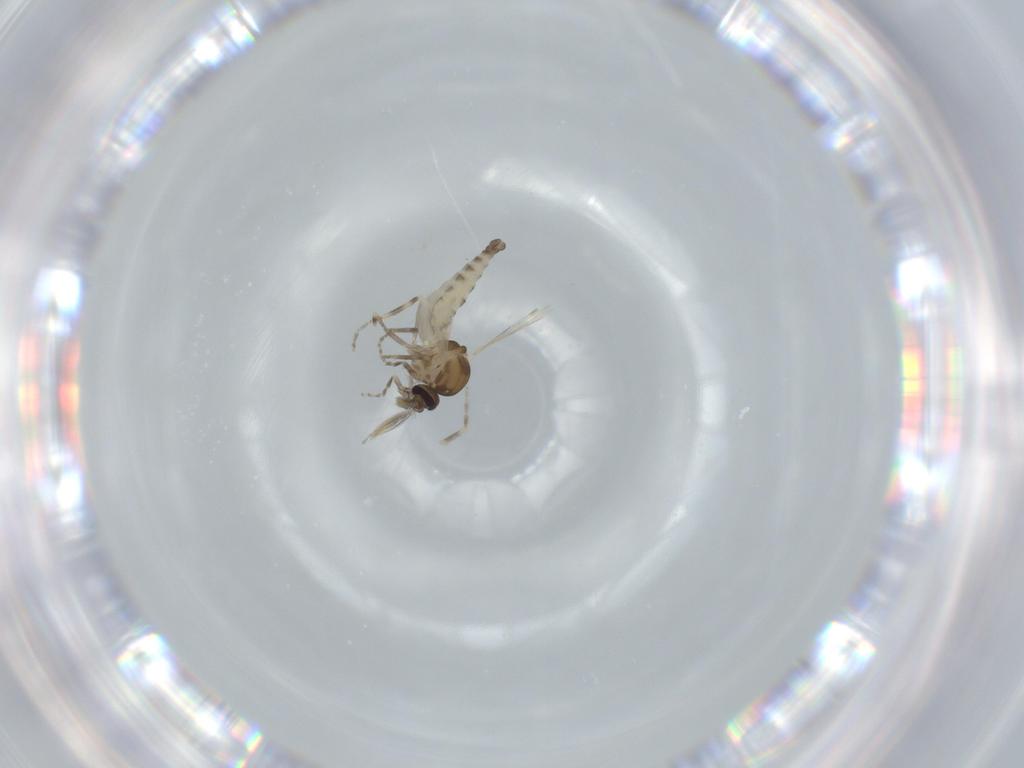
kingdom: Animalia
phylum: Arthropoda
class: Insecta
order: Diptera
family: Ceratopogonidae
